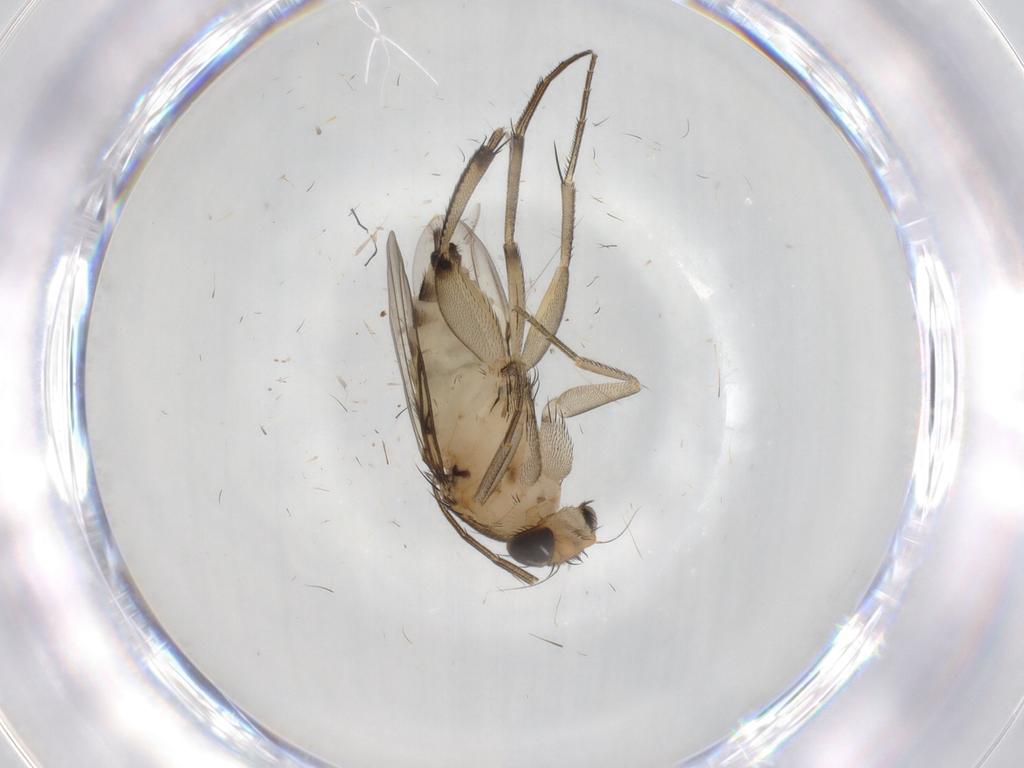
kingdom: Animalia
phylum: Arthropoda
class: Insecta
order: Diptera
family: Phoridae
